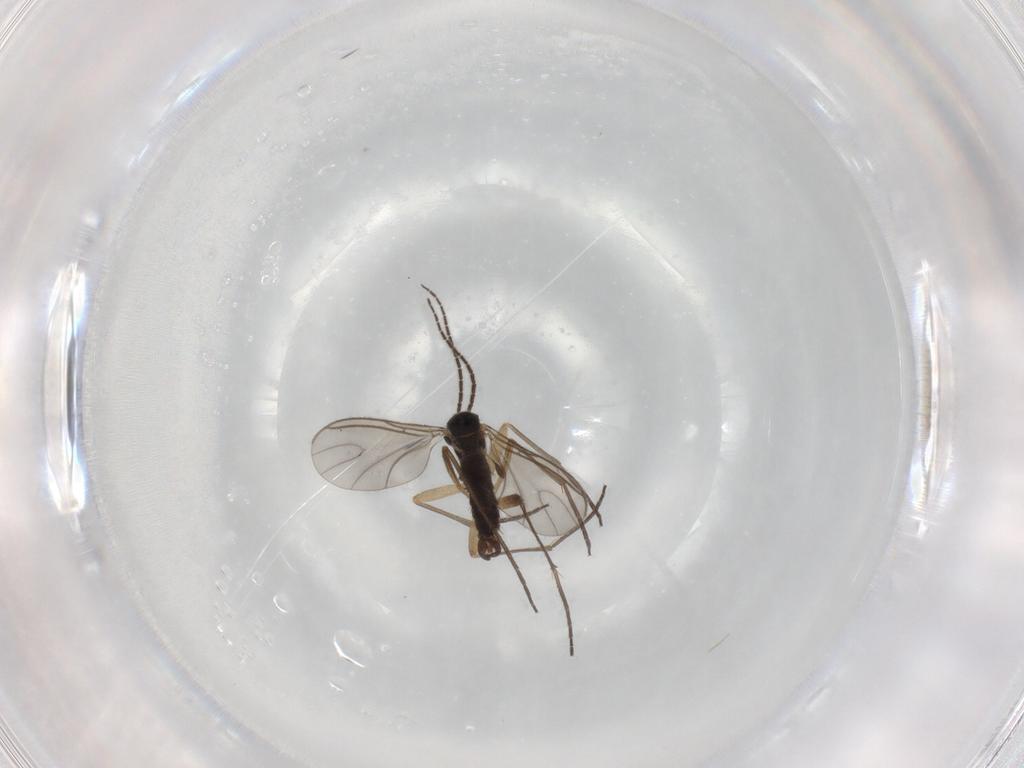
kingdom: Animalia
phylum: Arthropoda
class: Insecta
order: Diptera
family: Sciaridae
